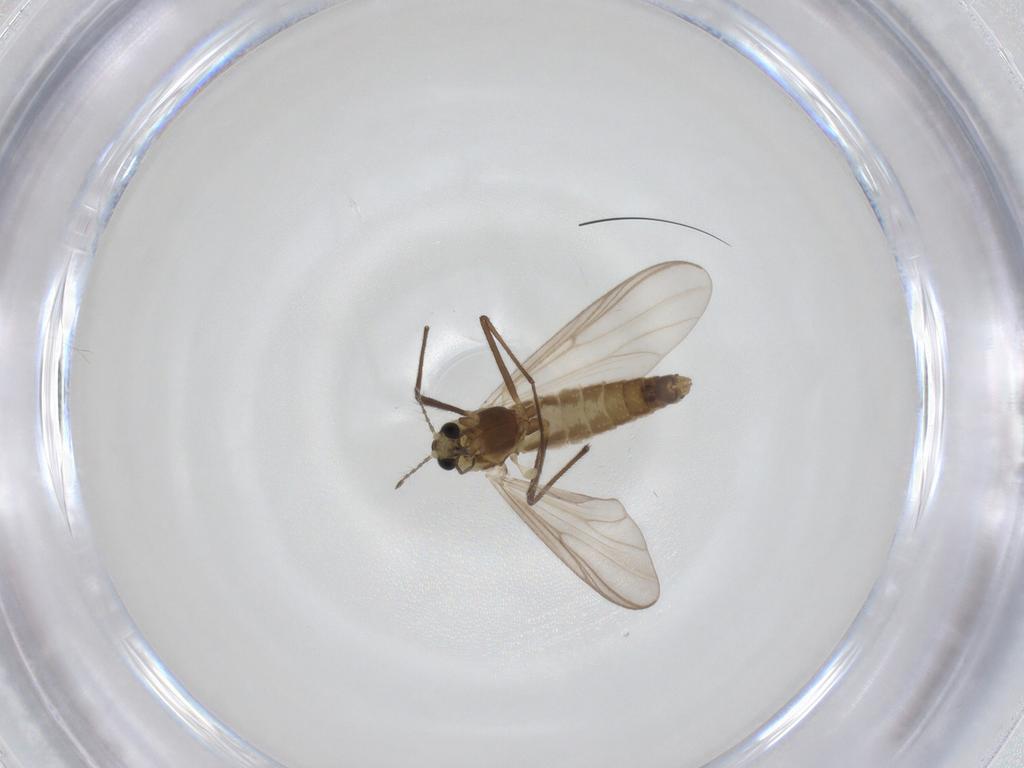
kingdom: Animalia
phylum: Arthropoda
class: Insecta
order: Diptera
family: Chironomidae
